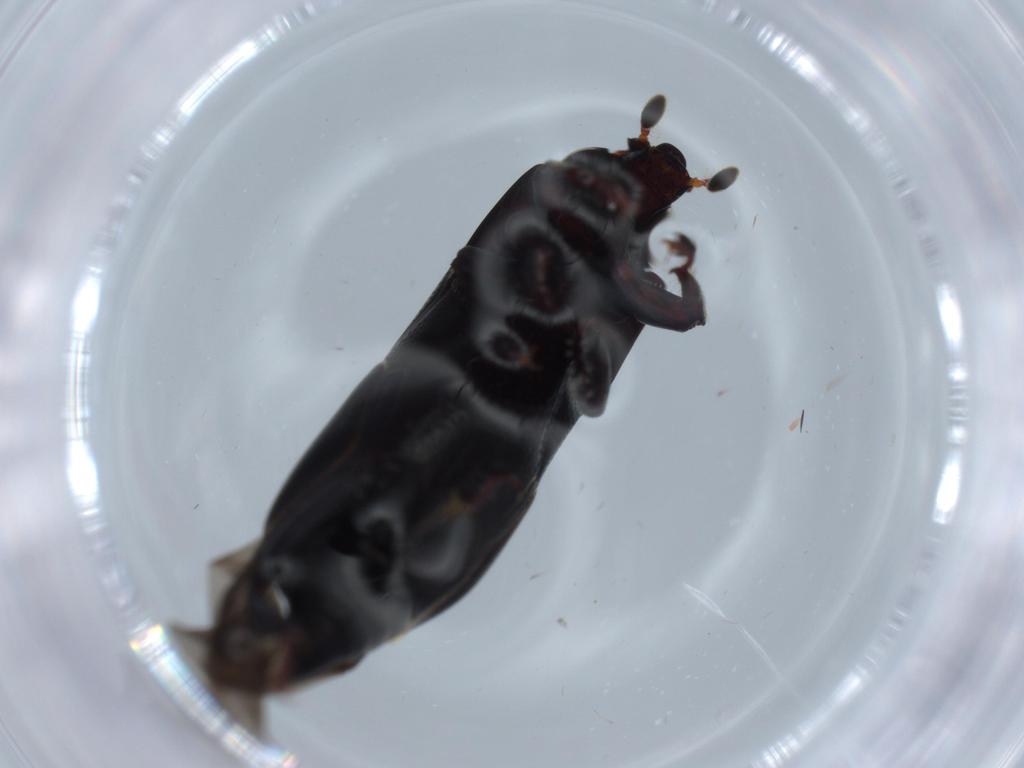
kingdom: Animalia
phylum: Arthropoda
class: Insecta
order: Coleoptera
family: Histeridae
